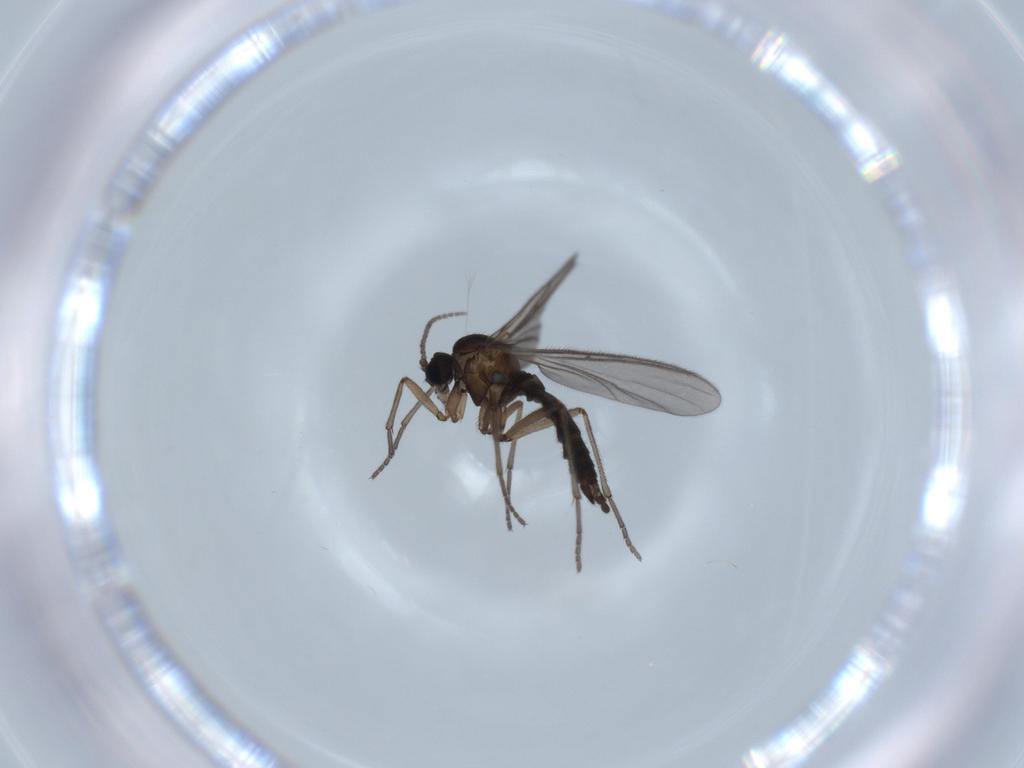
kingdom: Animalia
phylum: Arthropoda
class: Insecta
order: Diptera
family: Sciaridae
